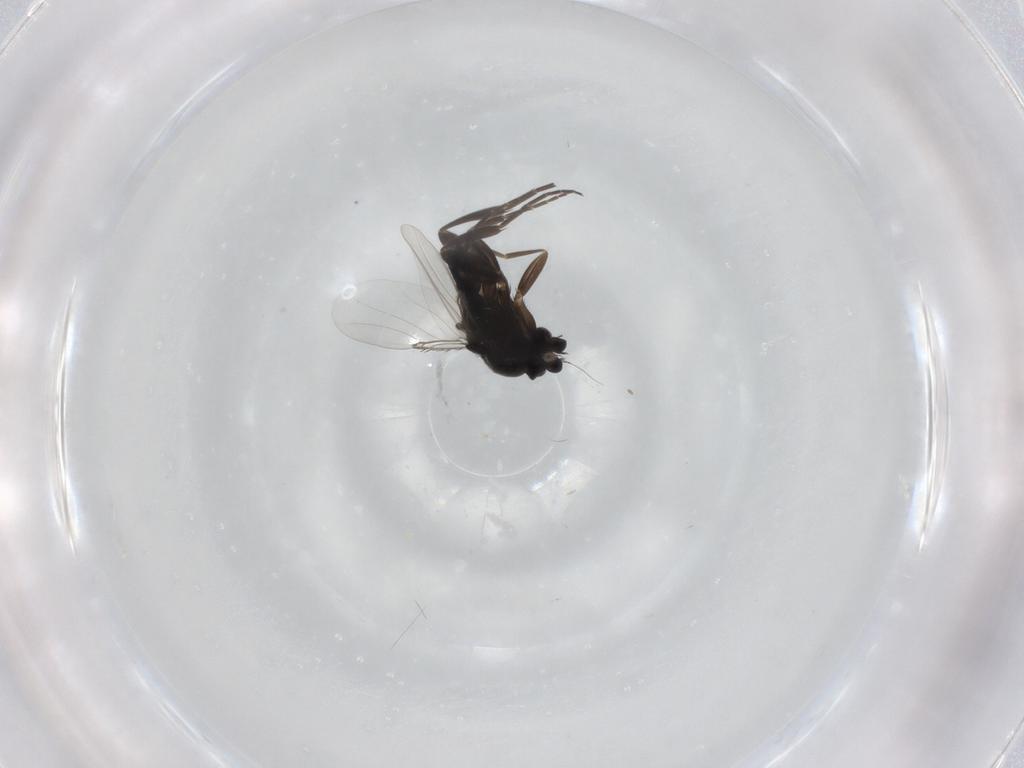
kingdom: Animalia
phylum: Arthropoda
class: Insecta
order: Diptera
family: Phoridae
